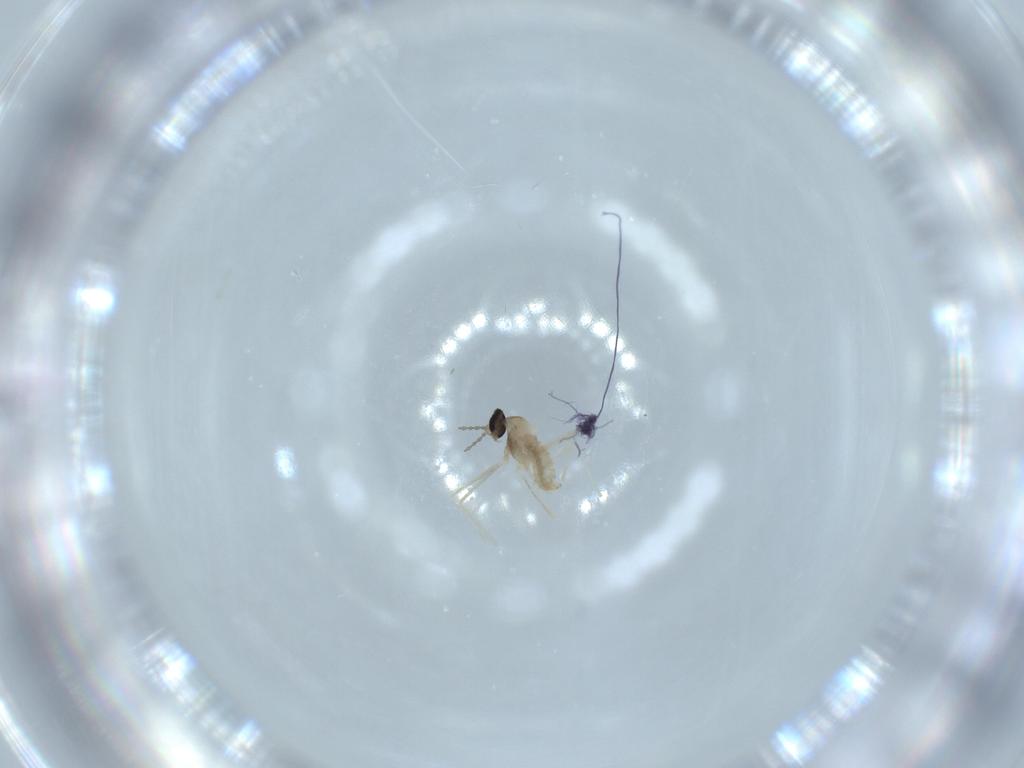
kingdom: Animalia
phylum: Arthropoda
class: Insecta
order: Diptera
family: Cecidomyiidae
